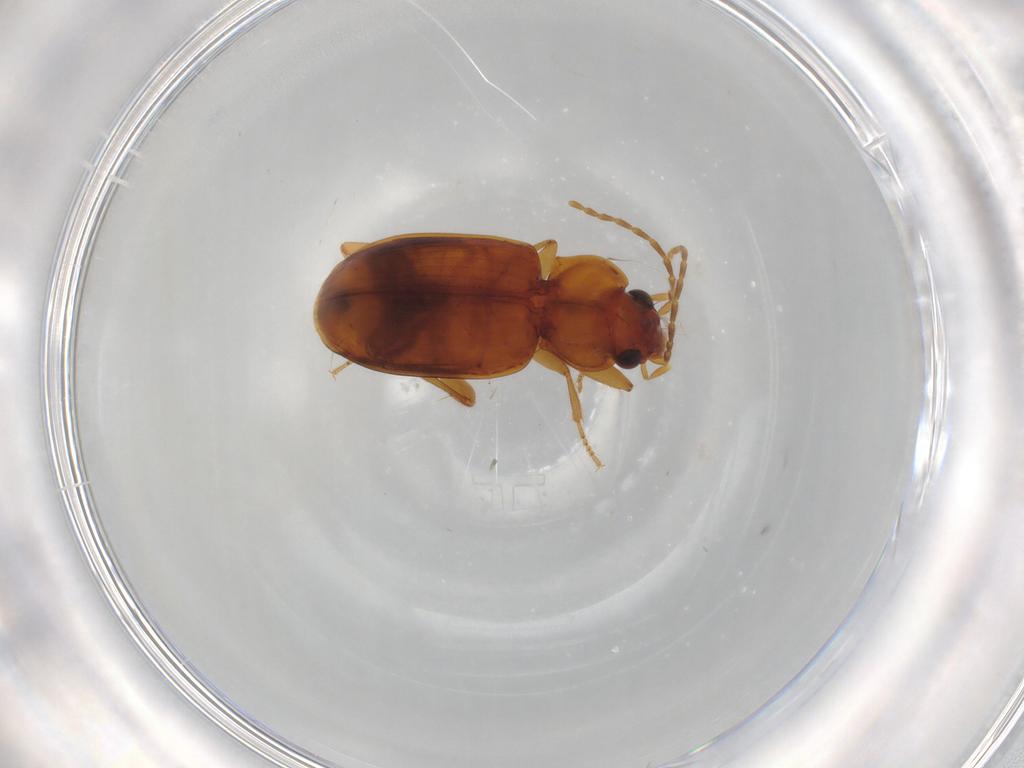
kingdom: Animalia
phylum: Arthropoda
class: Insecta
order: Coleoptera
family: Carabidae
